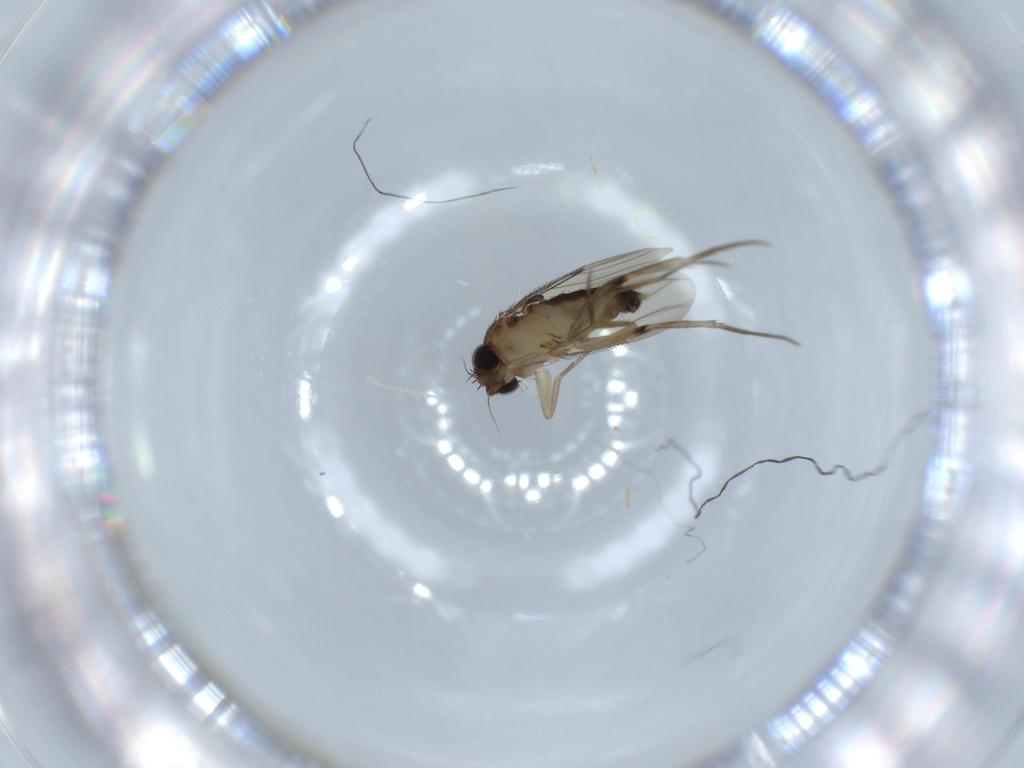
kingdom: Animalia
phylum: Arthropoda
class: Insecta
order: Diptera
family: Phoridae
